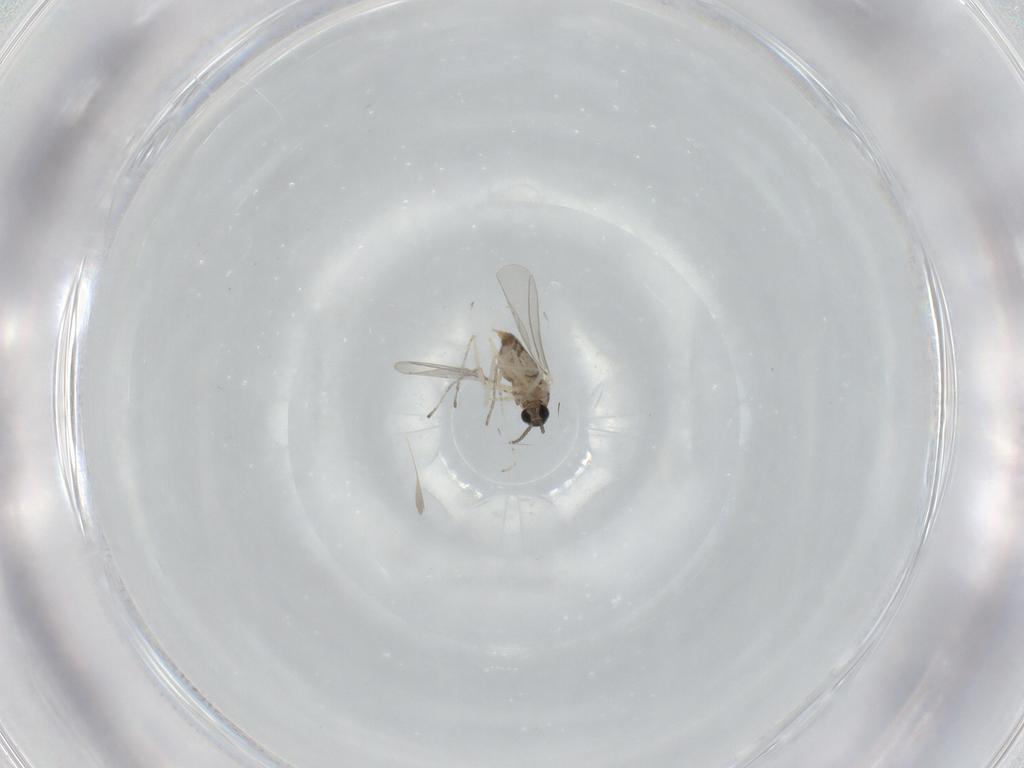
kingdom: Animalia
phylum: Arthropoda
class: Insecta
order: Diptera
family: Cecidomyiidae
